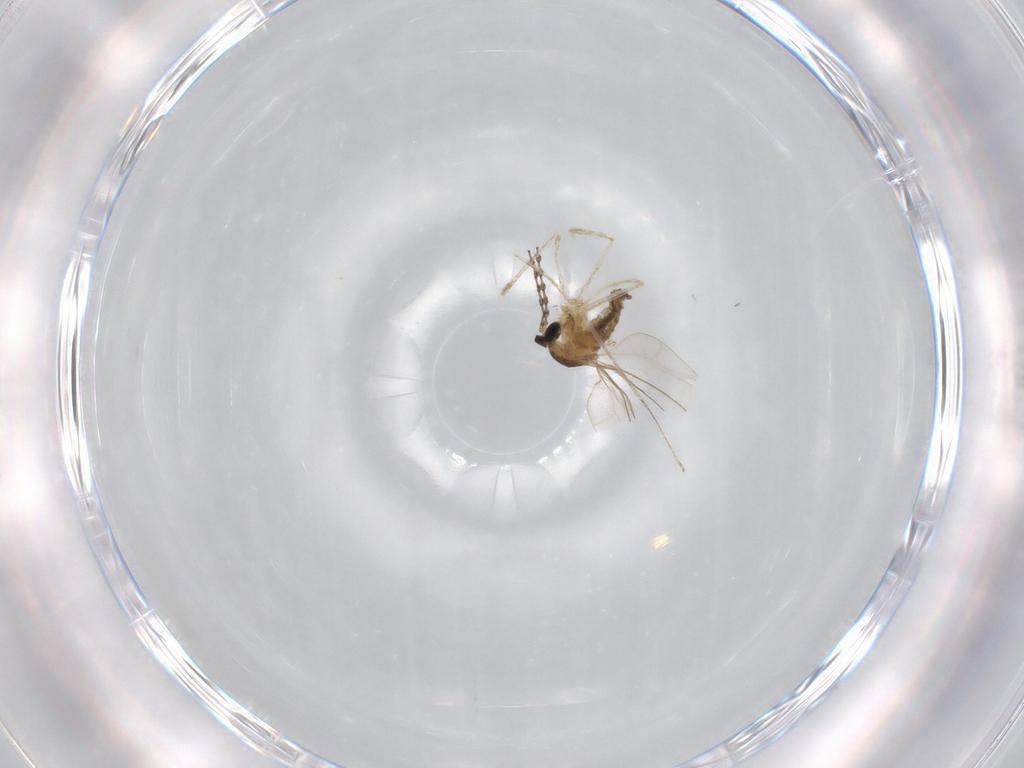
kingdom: Animalia
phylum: Arthropoda
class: Insecta
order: Diptera
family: Cecidomyiidae
